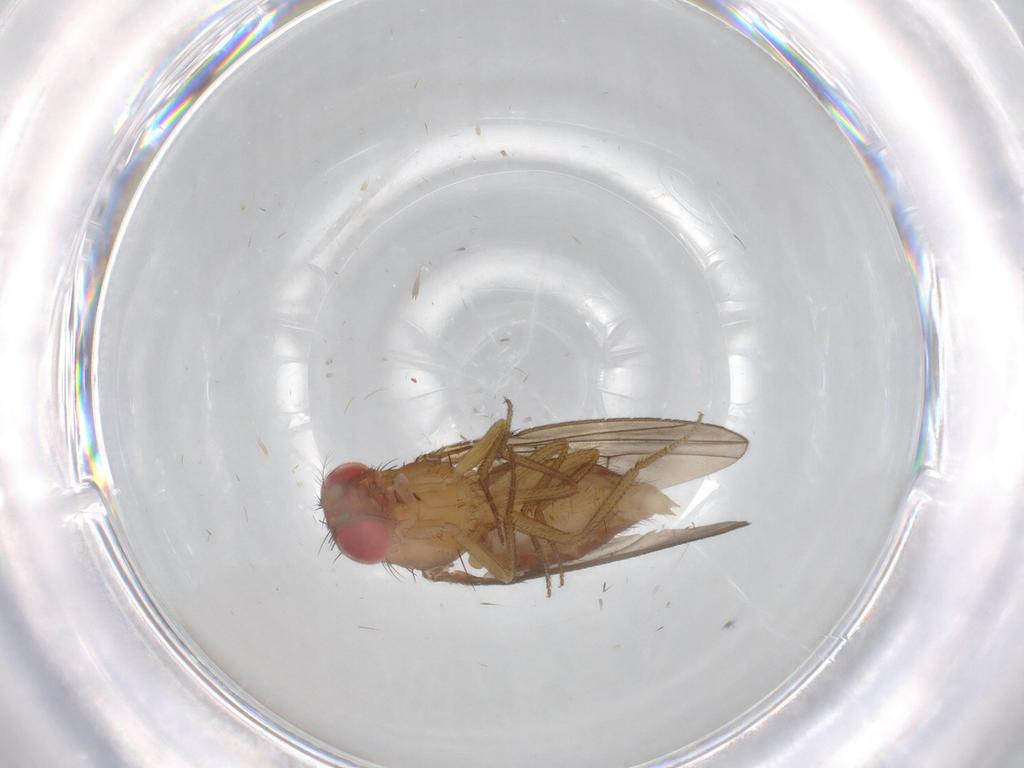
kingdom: Animalia
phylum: Arthropoda
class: Insecta
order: Diptera
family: Drosophilidae
